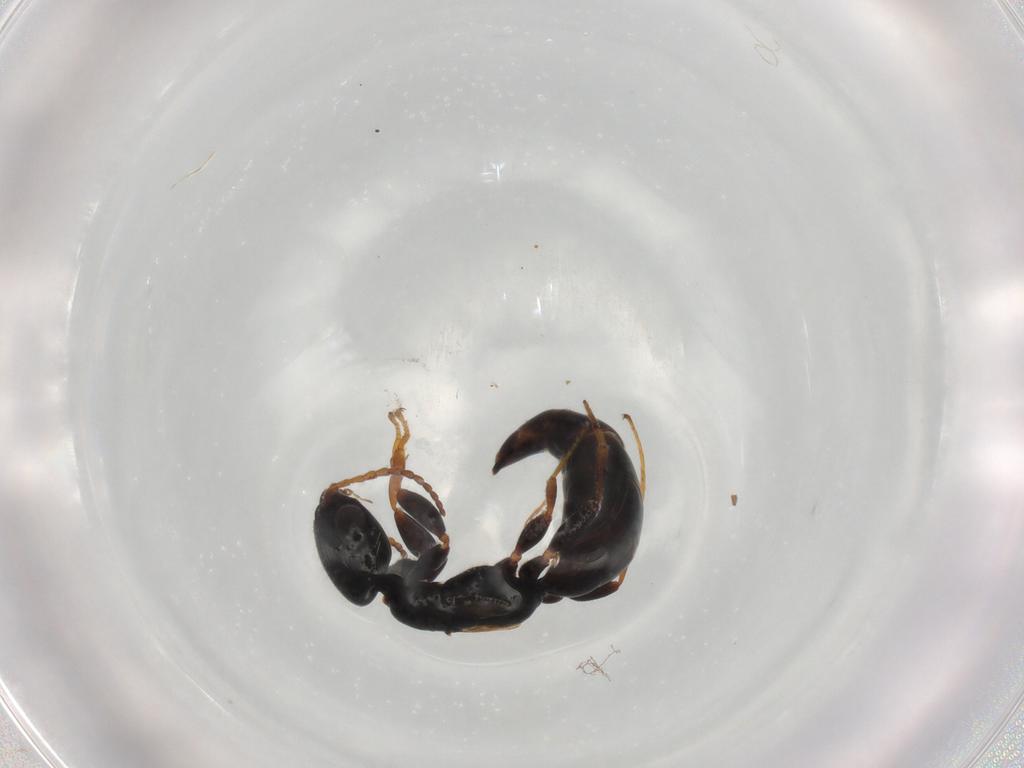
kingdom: Animalia
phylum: Arthropoda
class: Insecta
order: Hymenoptera
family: Bethylidae
